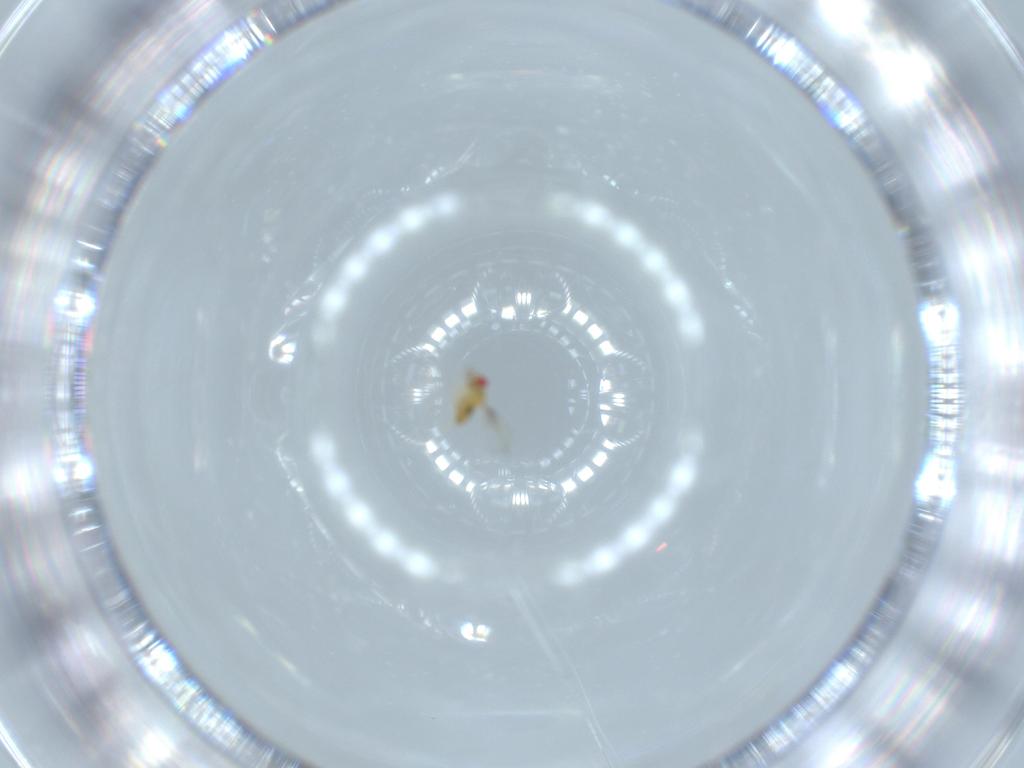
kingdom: Animalia
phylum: Arthropoda
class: Insecta
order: Hymenoptera
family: Trichogrammatidae
